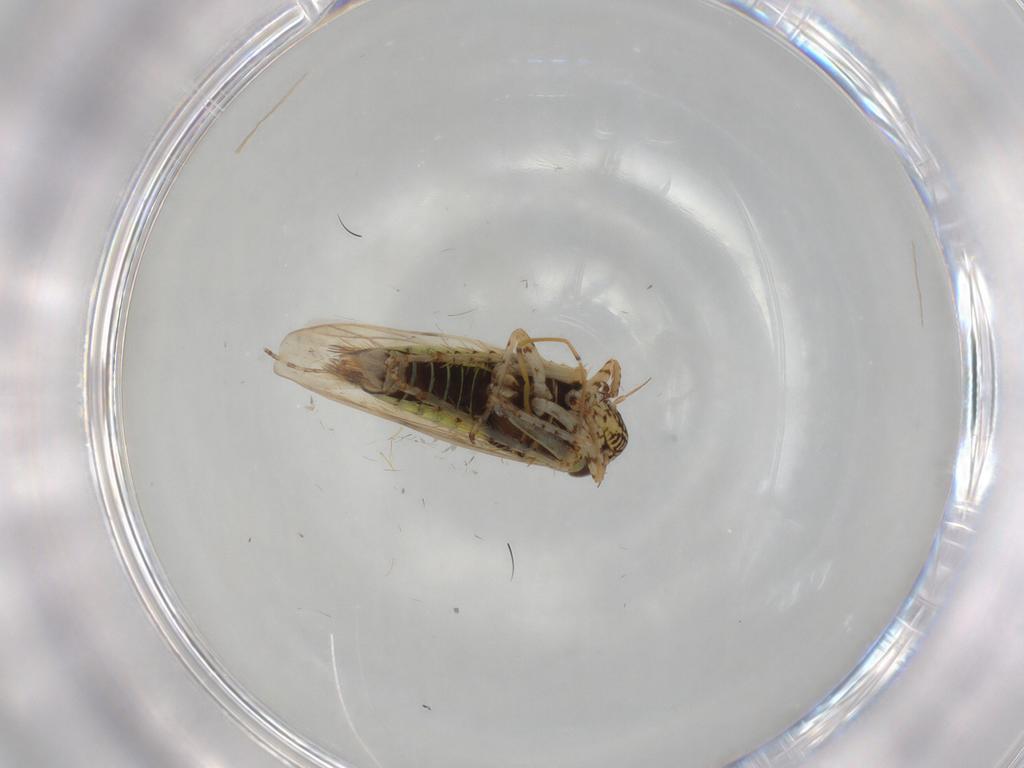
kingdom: Animalia
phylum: Arthropoda
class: Insecta
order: Hemiptera
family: Cicadellidae
